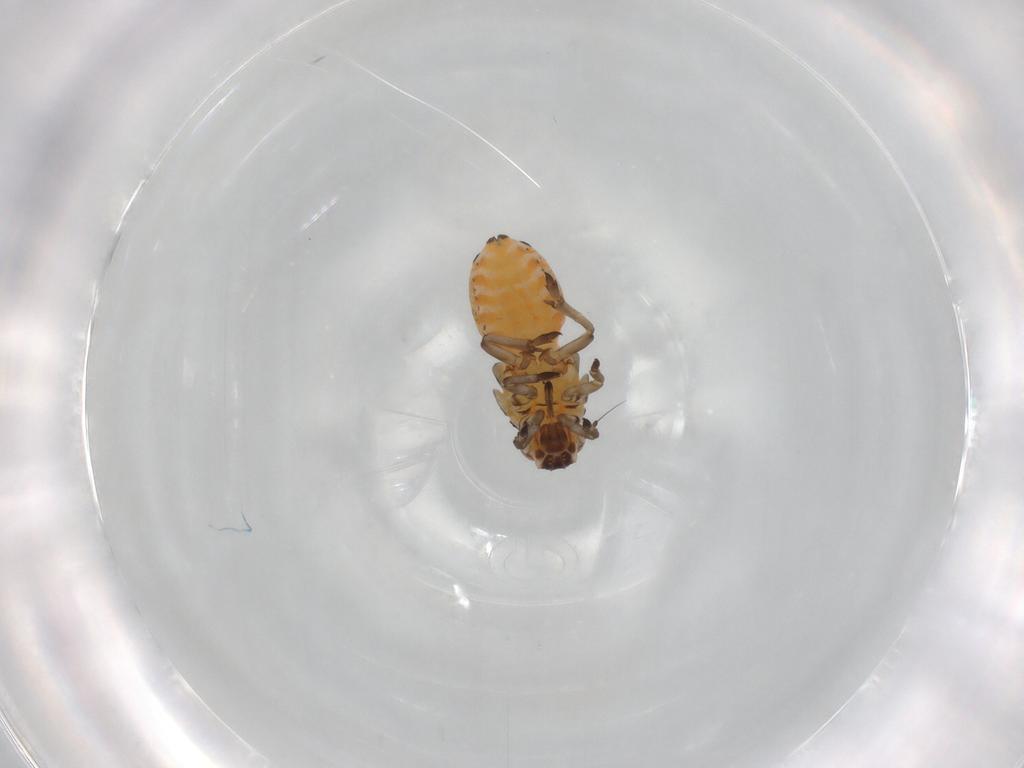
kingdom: Animalia
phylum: Arthropoda
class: Insecta
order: Hemiptera
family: Cicadellidae
